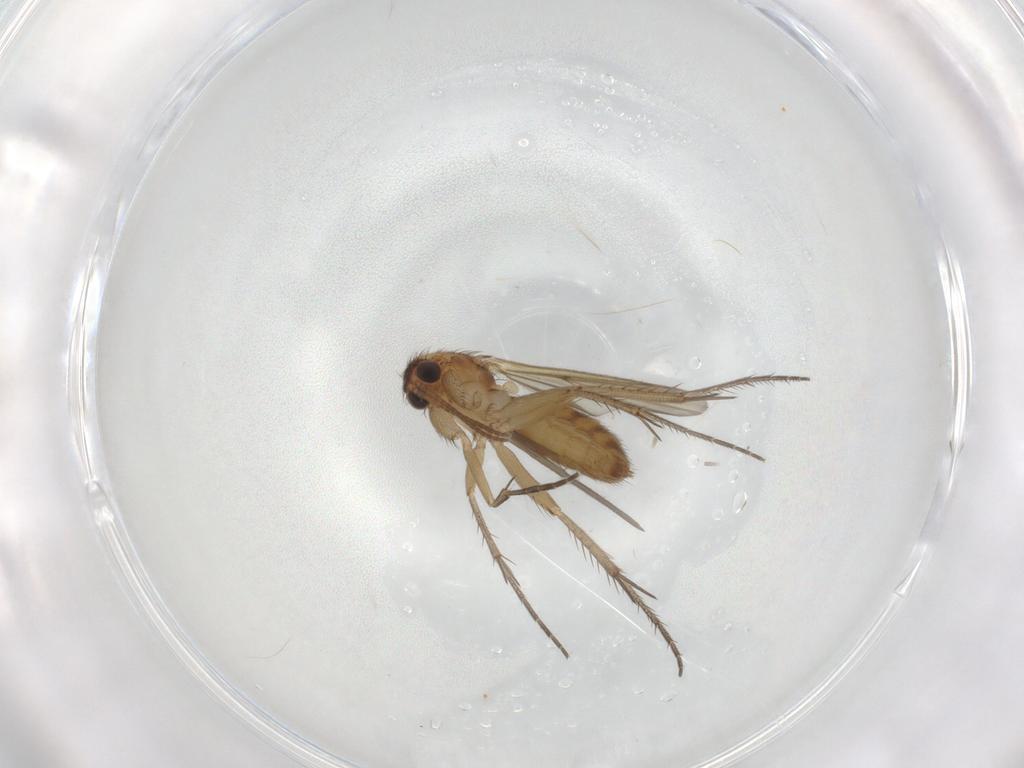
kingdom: Animalia
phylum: Arthropoda
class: Insecta
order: Diptera
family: Mycetophilidae
